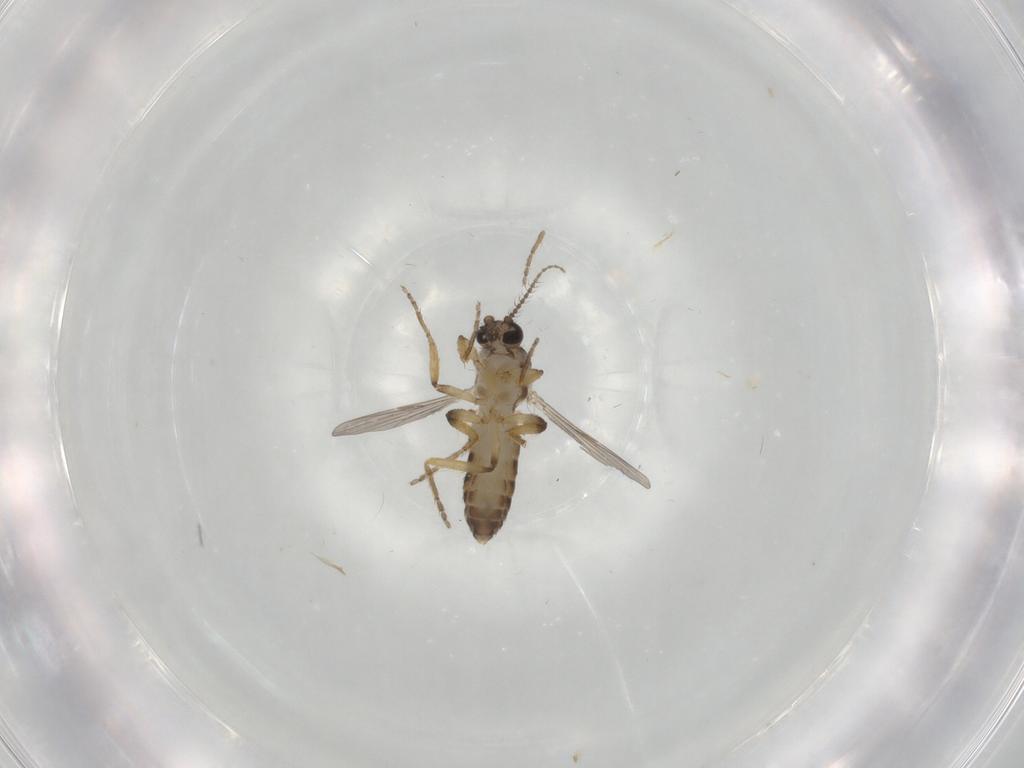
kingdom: Animalia
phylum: Arthropoda
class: Insecta
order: Diptera
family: Ceratopogonidae
